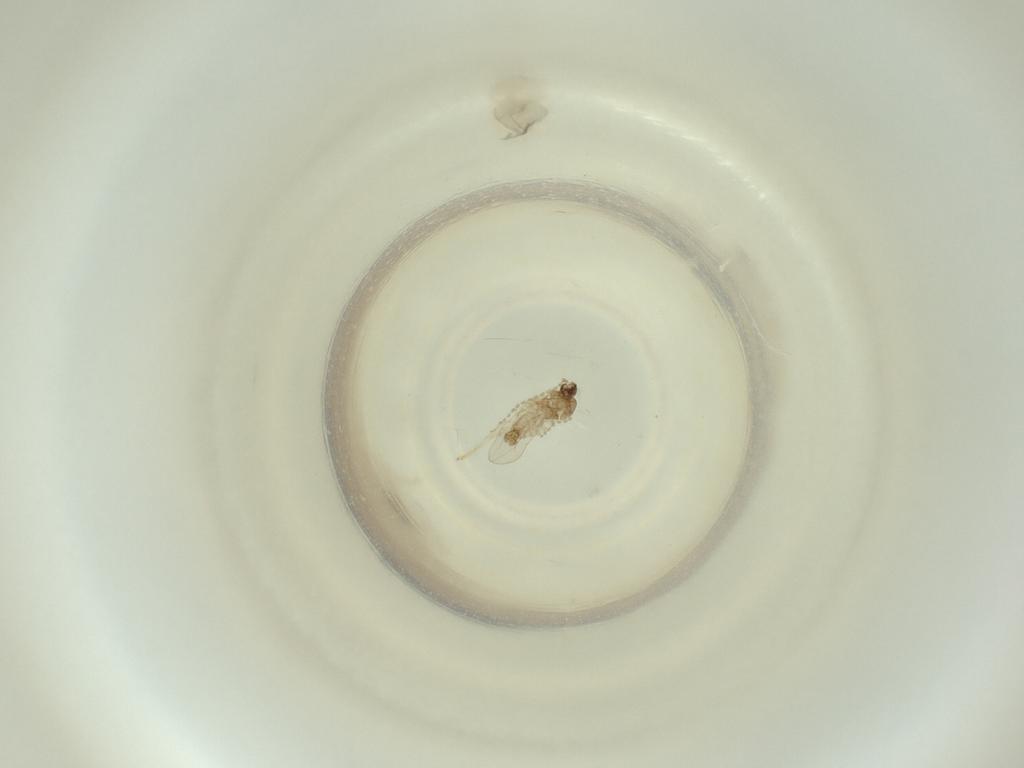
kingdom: Animalia
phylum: Arthropoda
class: Insecta
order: Diptera
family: Cecidomyiidae
